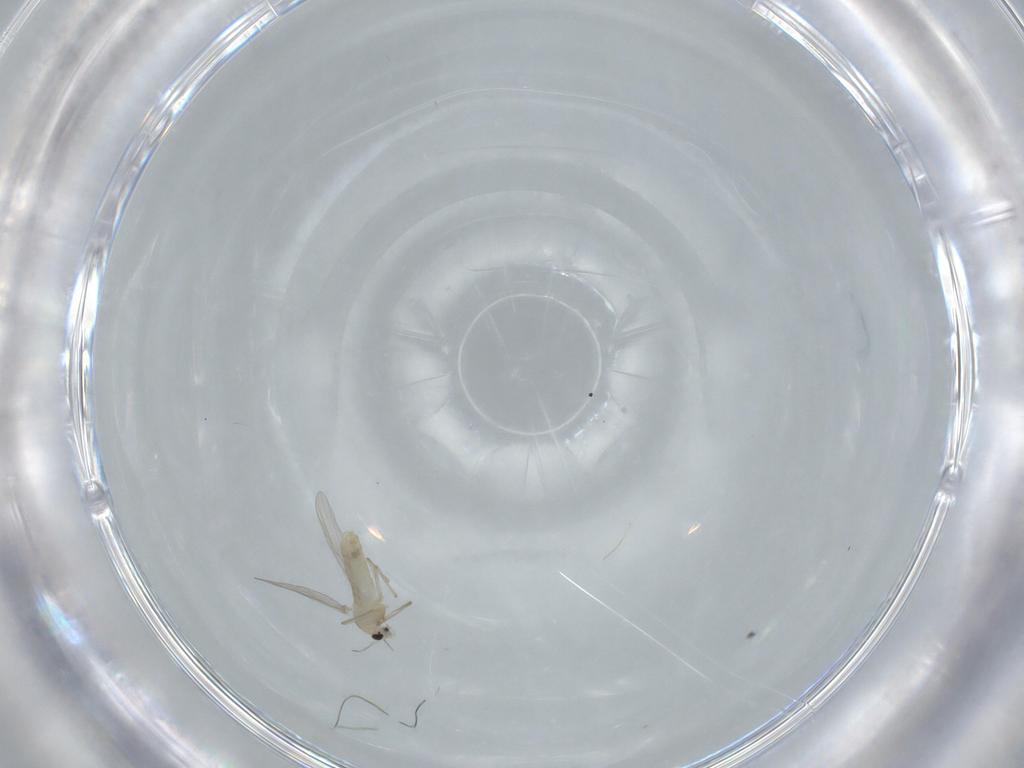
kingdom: Animalia
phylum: Arthropoda
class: Insecta
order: Diptera
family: Chironomidae
